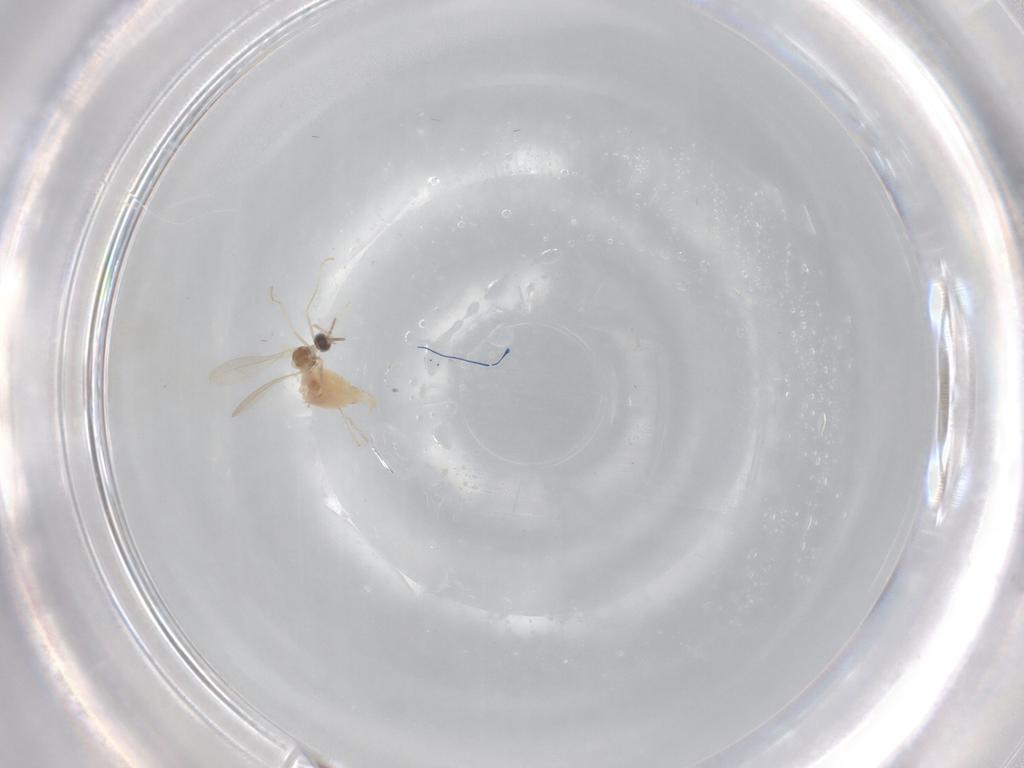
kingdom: Animalia
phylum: Arthropoda
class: Insecta
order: Diptera
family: Cecidomyiidae
